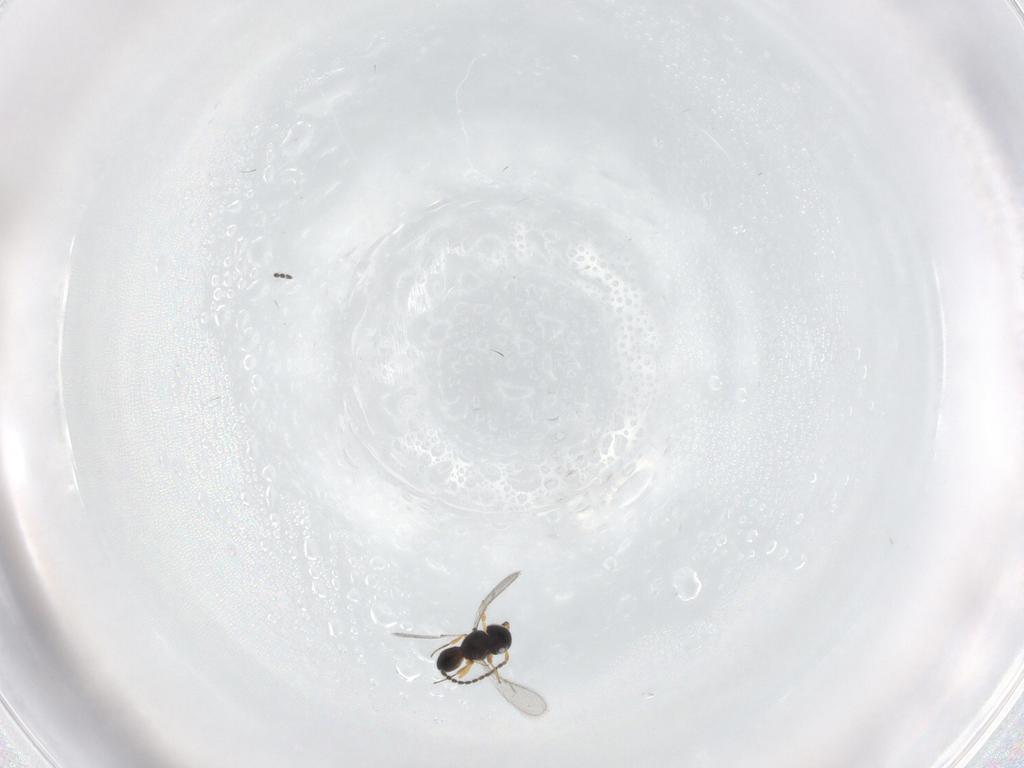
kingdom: Animalia
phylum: Arthropoda
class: Insecta
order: Hymenoptera
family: Scelionidae
